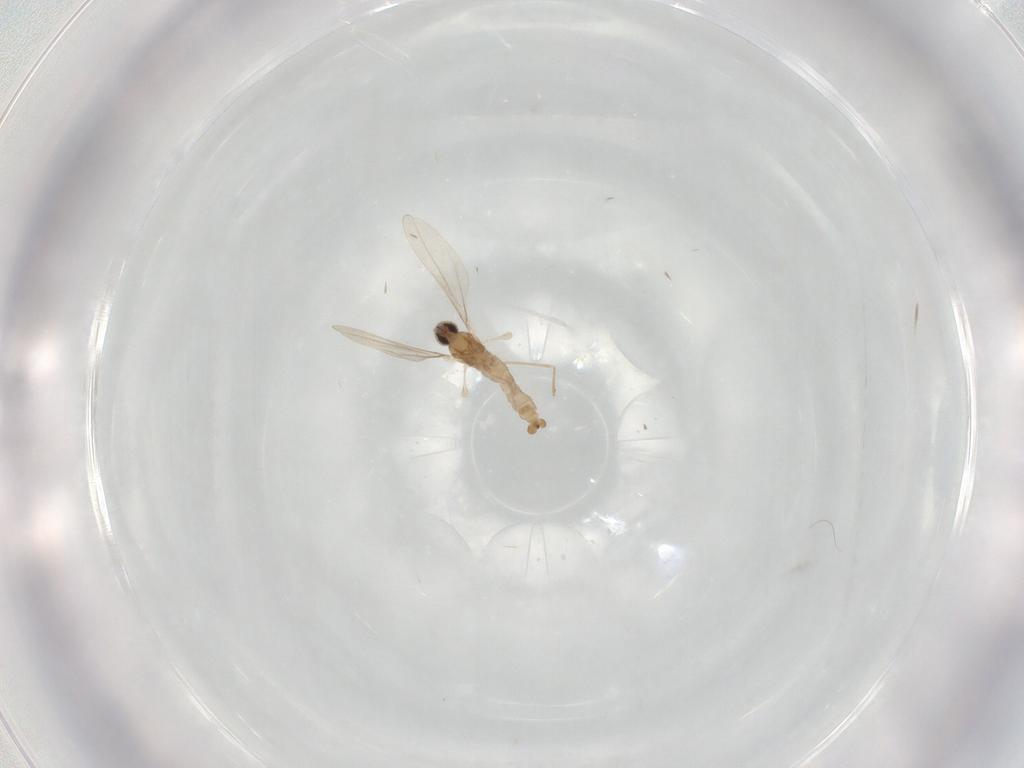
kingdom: Animalia
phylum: Arthropoda
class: Insecta
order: Diptera
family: Cecidomyiidae
